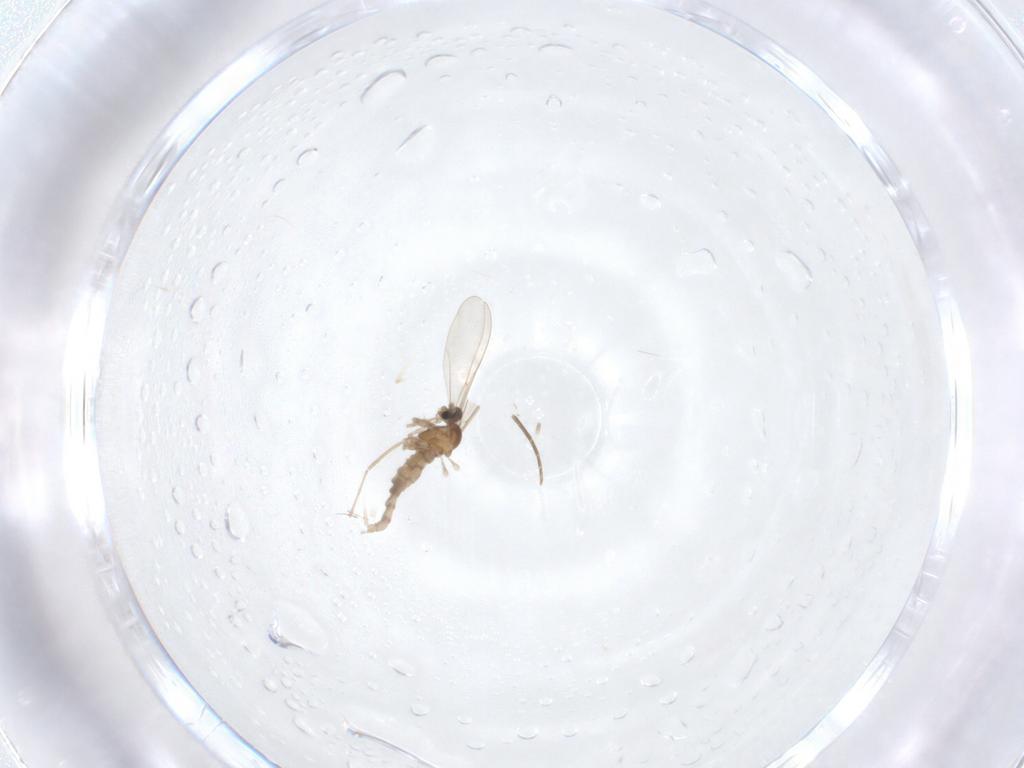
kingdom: Animalia
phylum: Arthropoda
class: Insecta
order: Diptera
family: Phoridae
